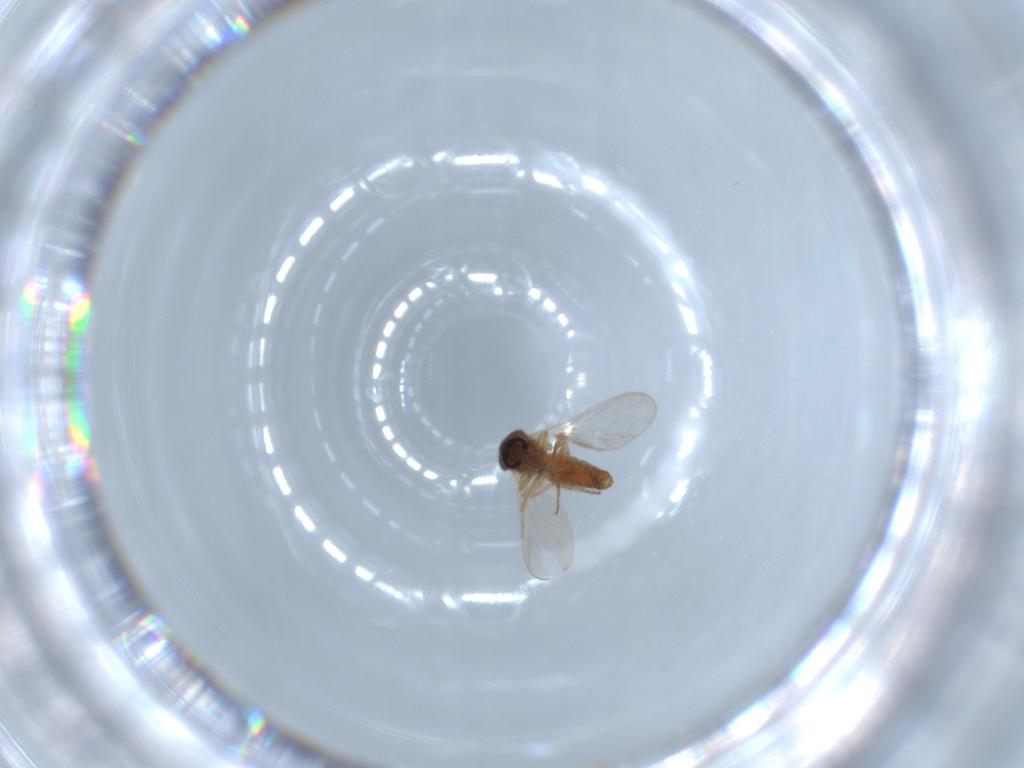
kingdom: Animalia
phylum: Arthropoda
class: Insecta
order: Diptera
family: Ceratopogonidae
